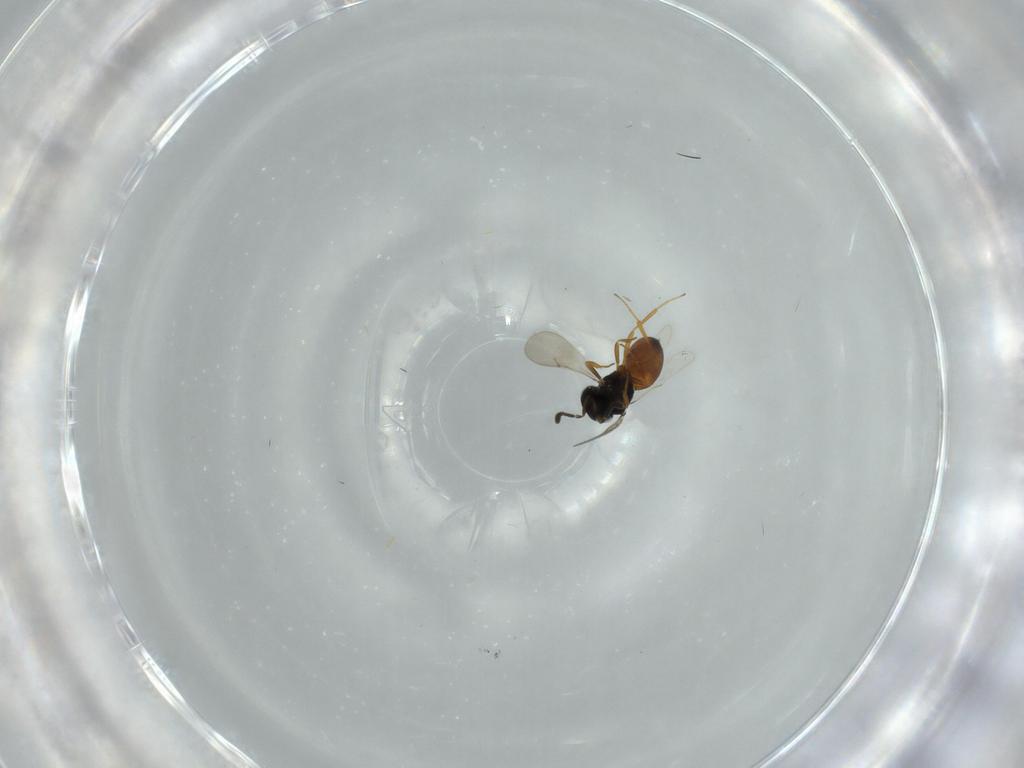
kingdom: Animalia
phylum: Arthropoda
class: Insecta
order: Hymenoptera
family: Scelionidae
